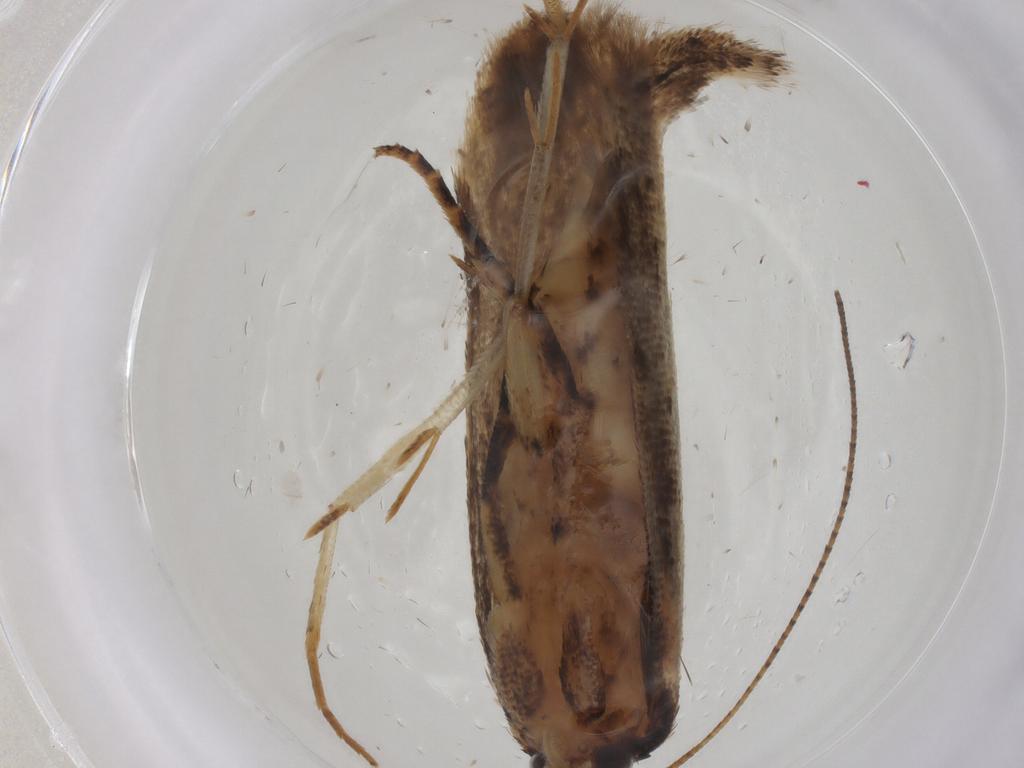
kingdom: Animalia
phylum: Arthropoda
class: Insecta
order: Lepidoptera
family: Gelechiidae
